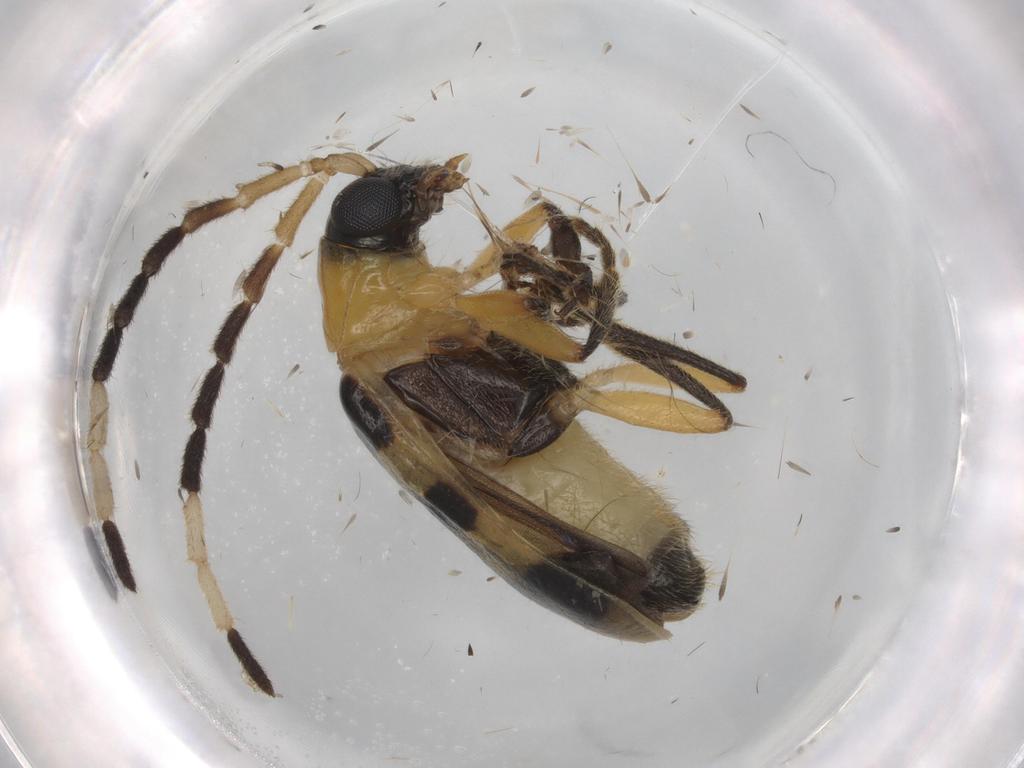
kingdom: Animalia
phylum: Arthropoda
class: Insecta
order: Coleoptera
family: Chrysomelidae
